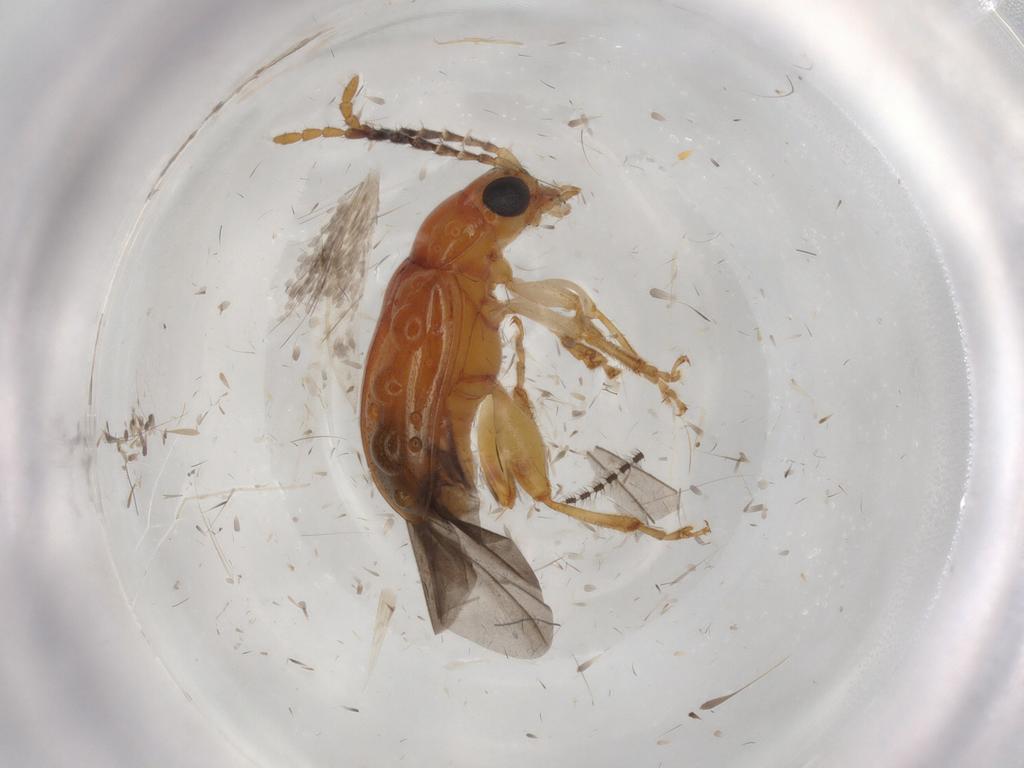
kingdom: Animalia
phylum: Arthropoda
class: Insecta
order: Coleoptera
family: Chrysomelidae
